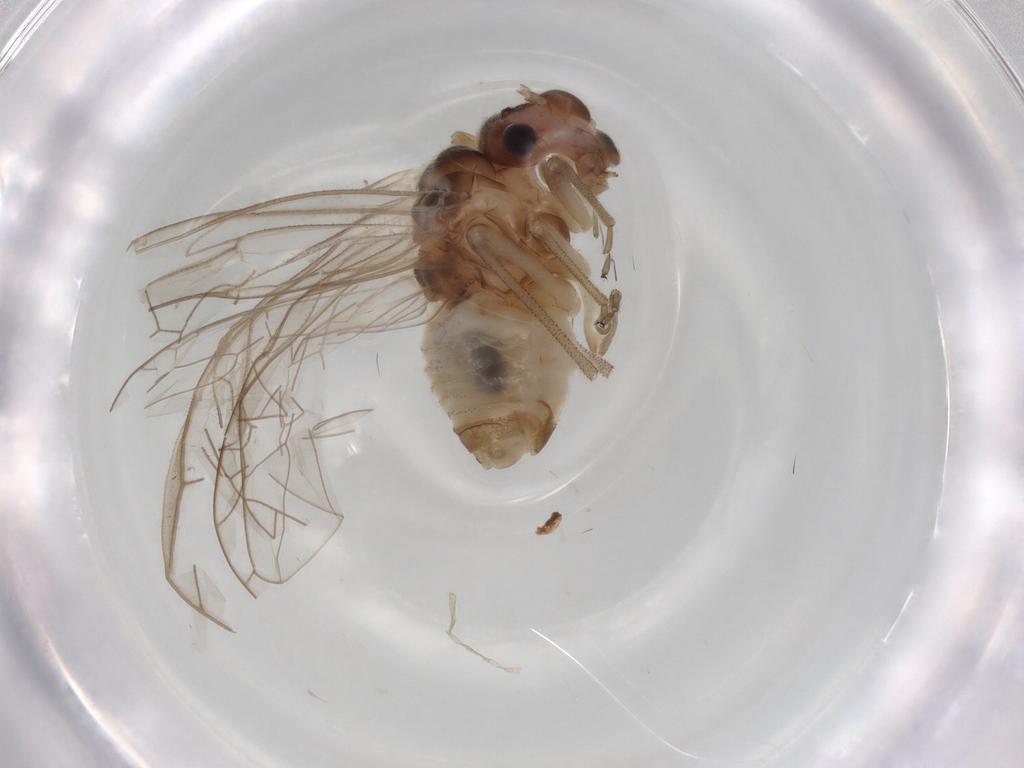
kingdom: Animalia
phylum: Arthropoda
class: Insecta
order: Psocodea
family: Stenopsocidae
